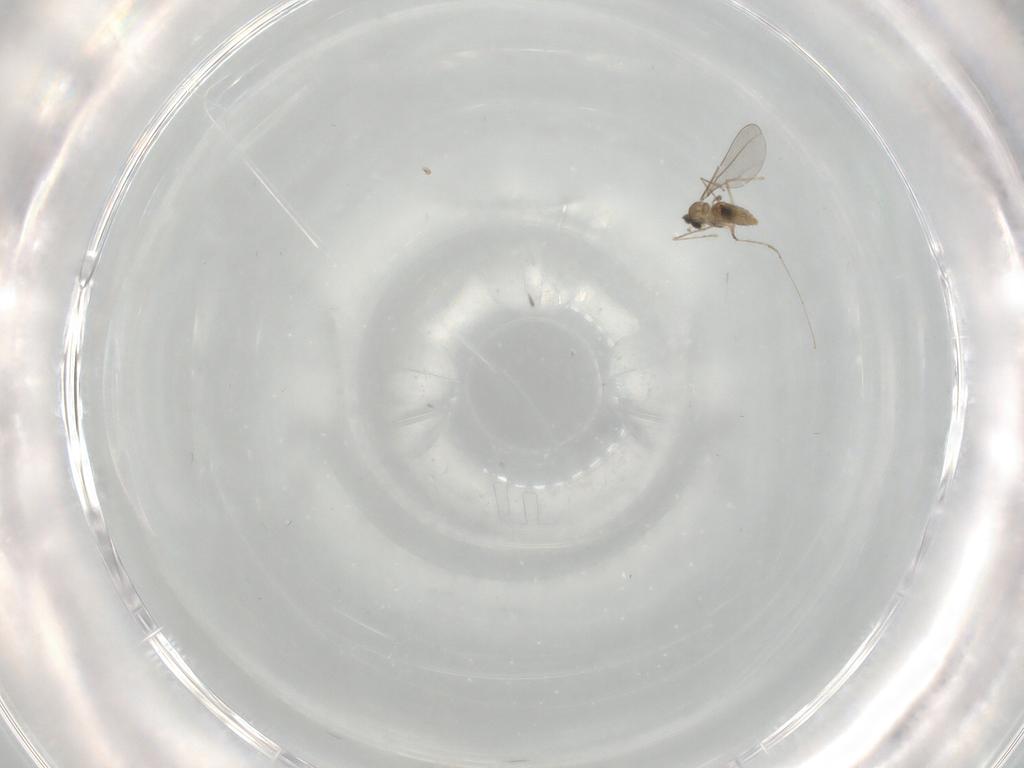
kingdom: Animalia
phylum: Arthropoda
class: Insecta
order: Diptera
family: Cecidomyiidae
